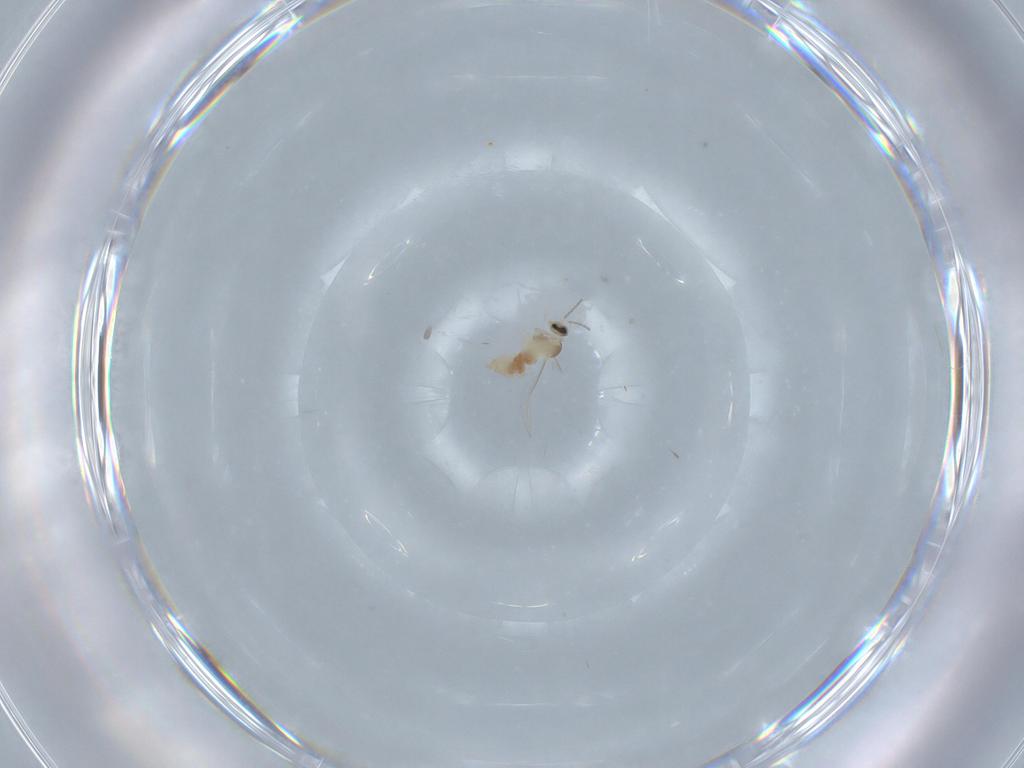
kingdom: Animalia
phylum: Arthropoda
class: Insecta
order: Diptera
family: Cecidomyiidae
